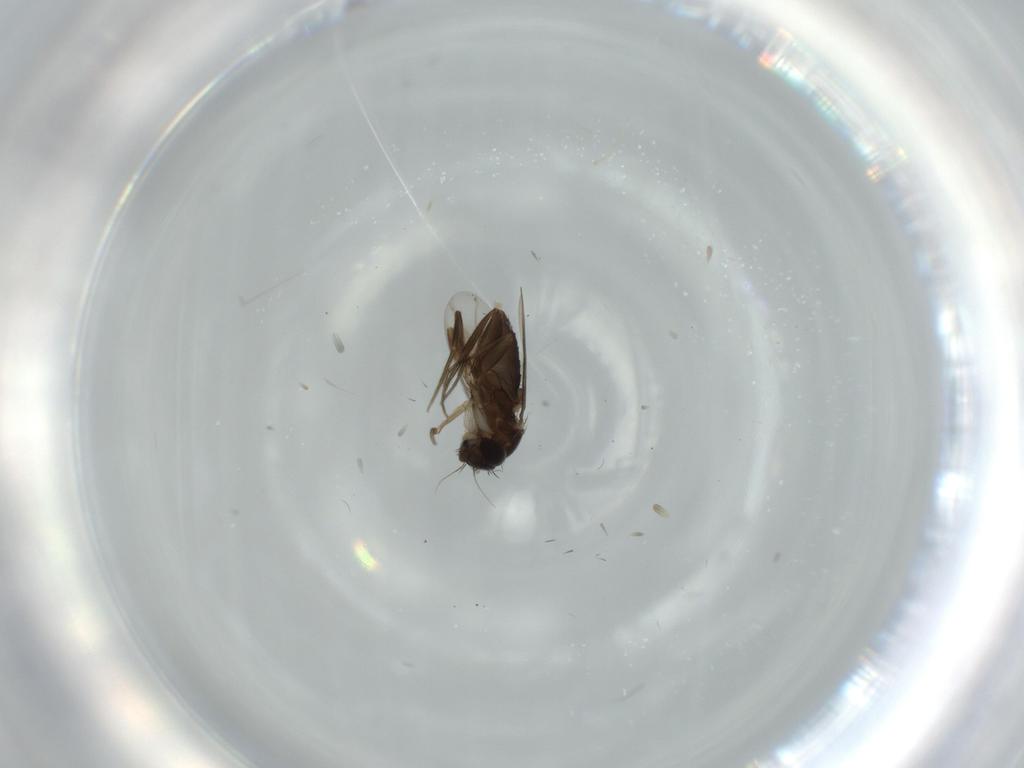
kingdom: Animalia
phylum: Arthropoda
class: Insecta
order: Diptera
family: Phoridae
